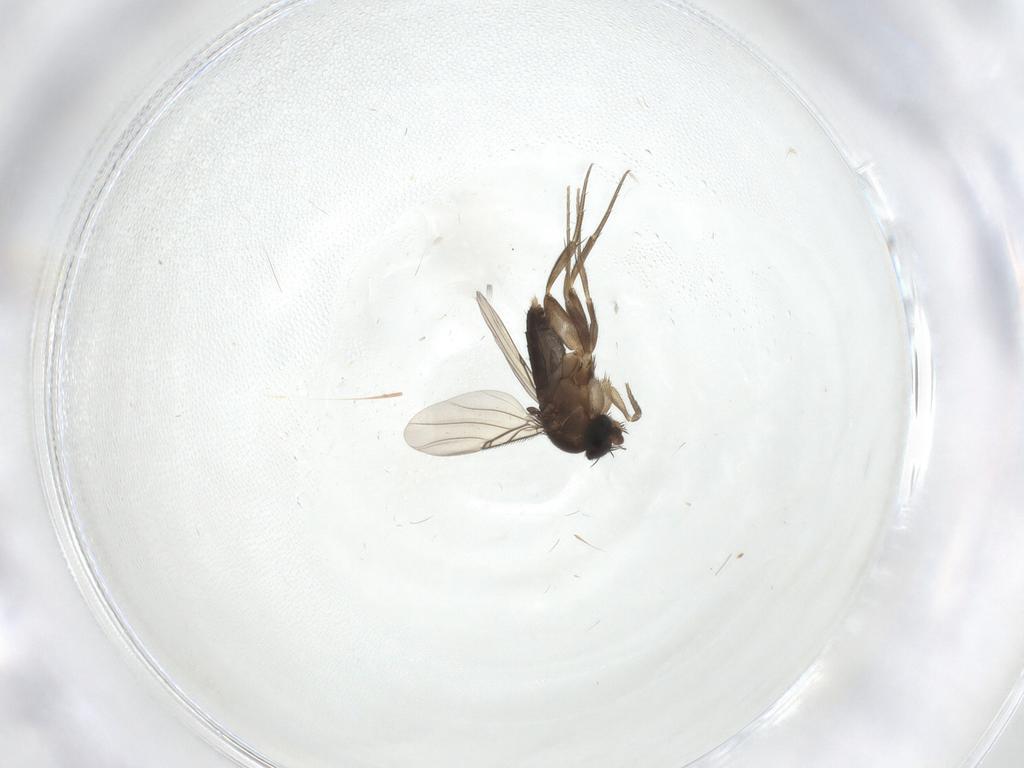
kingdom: Animalia
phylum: Arthropoda
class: Insecta
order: Diptera
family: Phoridae
